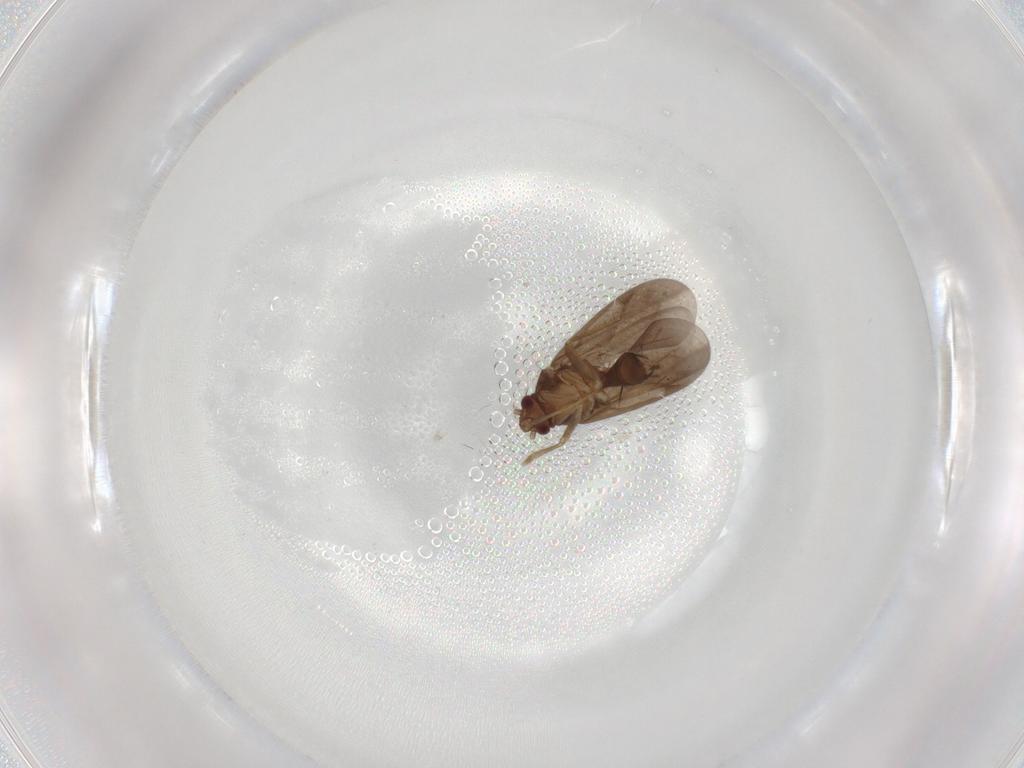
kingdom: Animalia
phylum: Arthropoda
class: Insecta
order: Hemiptera
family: Ceratocombidae
